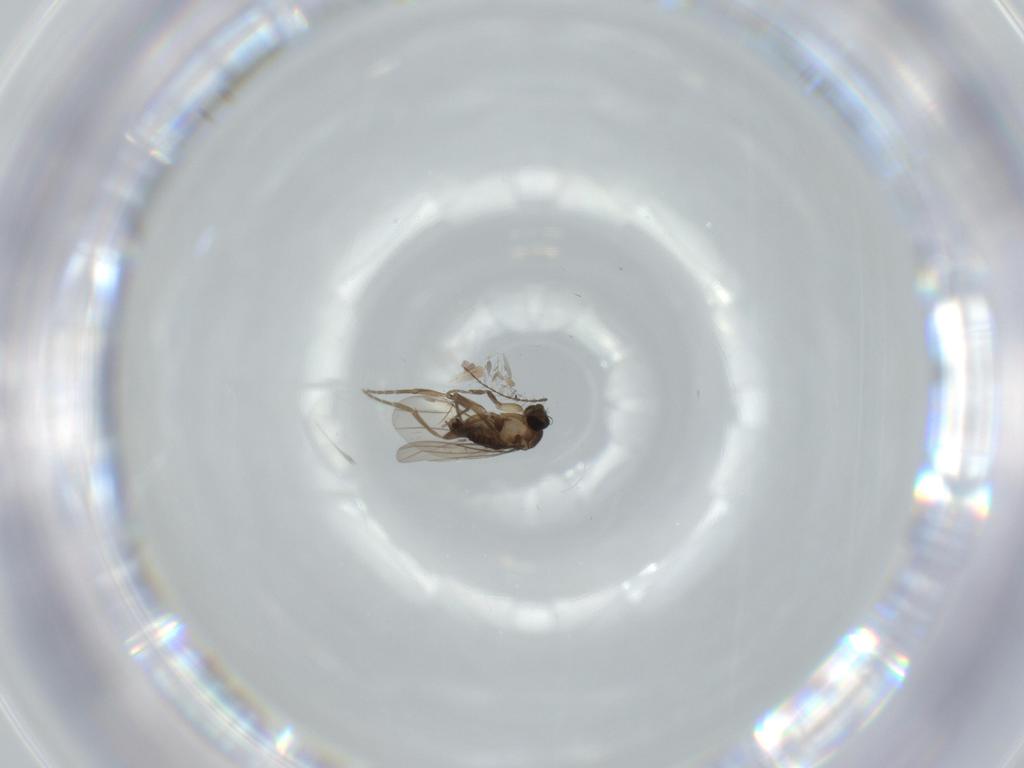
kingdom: Animalia
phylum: Arthropoda
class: Insecta
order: Diptera
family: Phoridae
